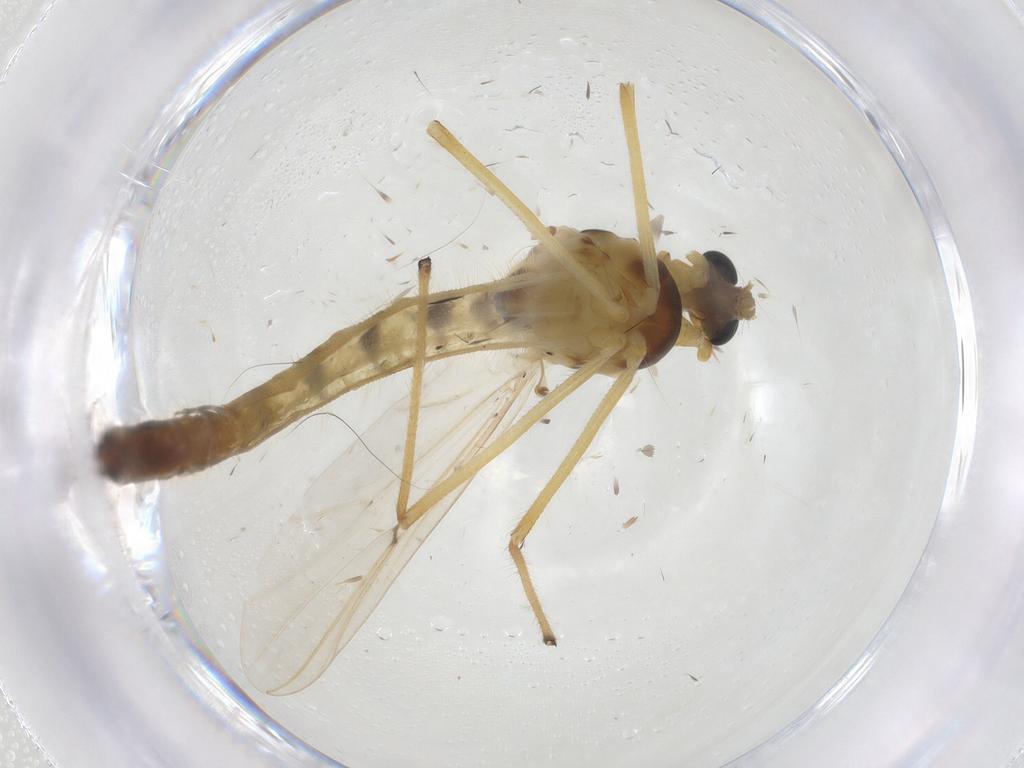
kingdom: Animalia
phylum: Arthropoda
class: Insecta
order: Diptera
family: Chironomidae
